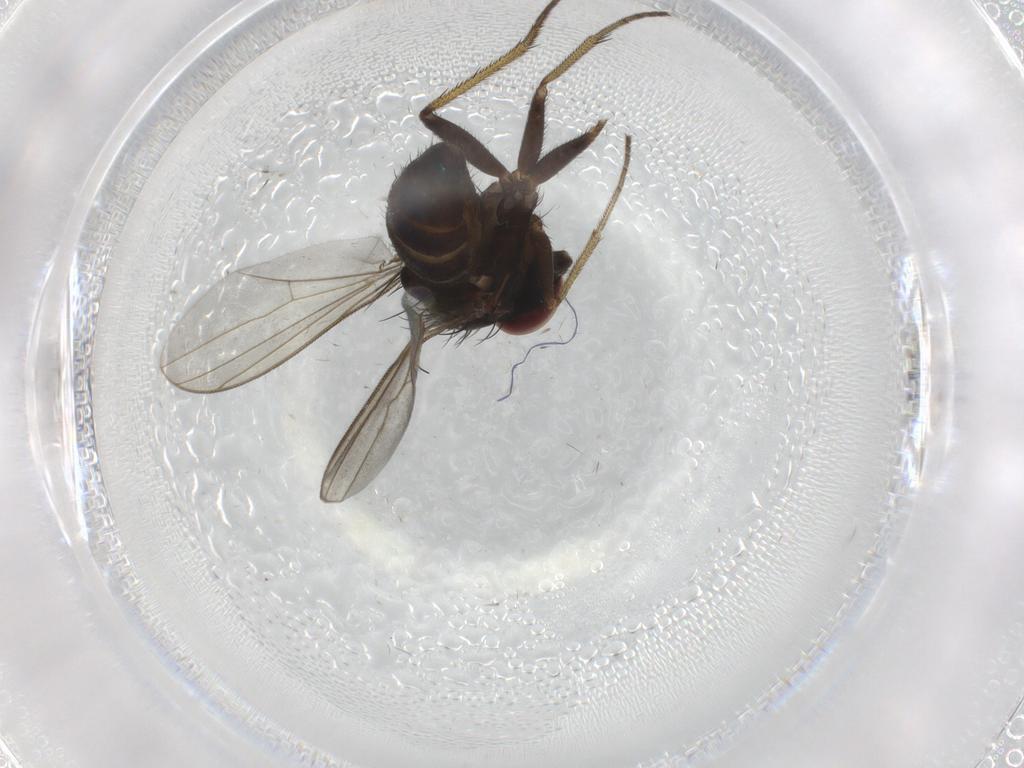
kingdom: Animalia
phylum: Arthropoda
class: Insecta
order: Diptera
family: Dolichopodidae
